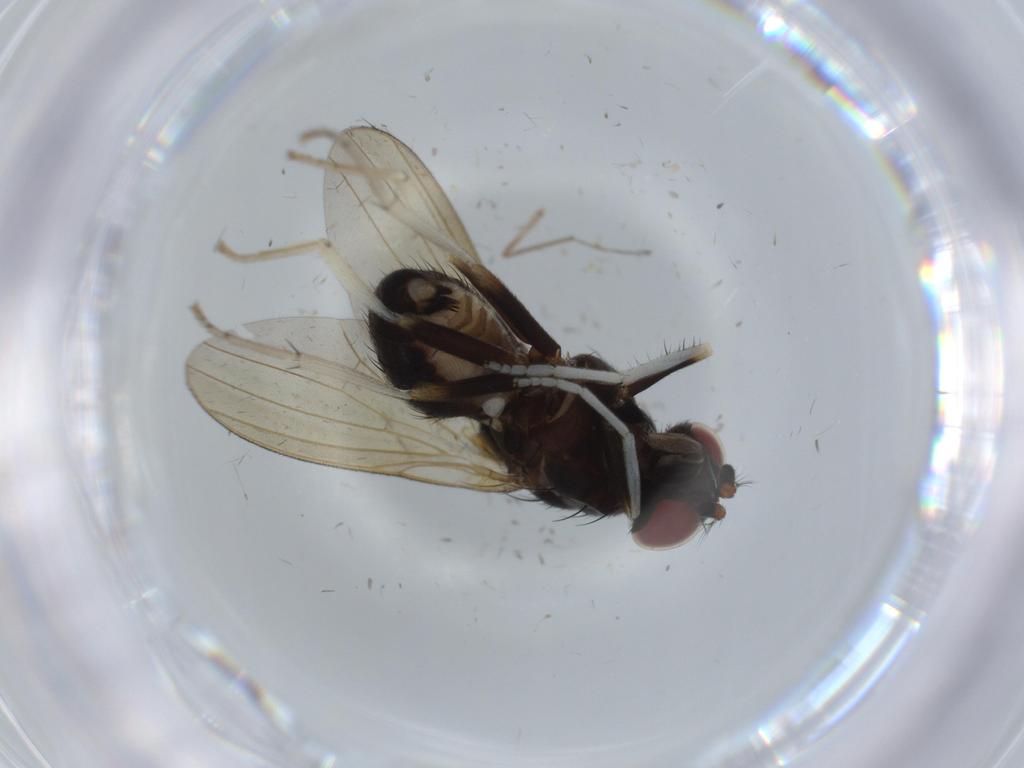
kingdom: Animalia
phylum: Arthropoda
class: Insecta
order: Diptera
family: Lauxaniidae
